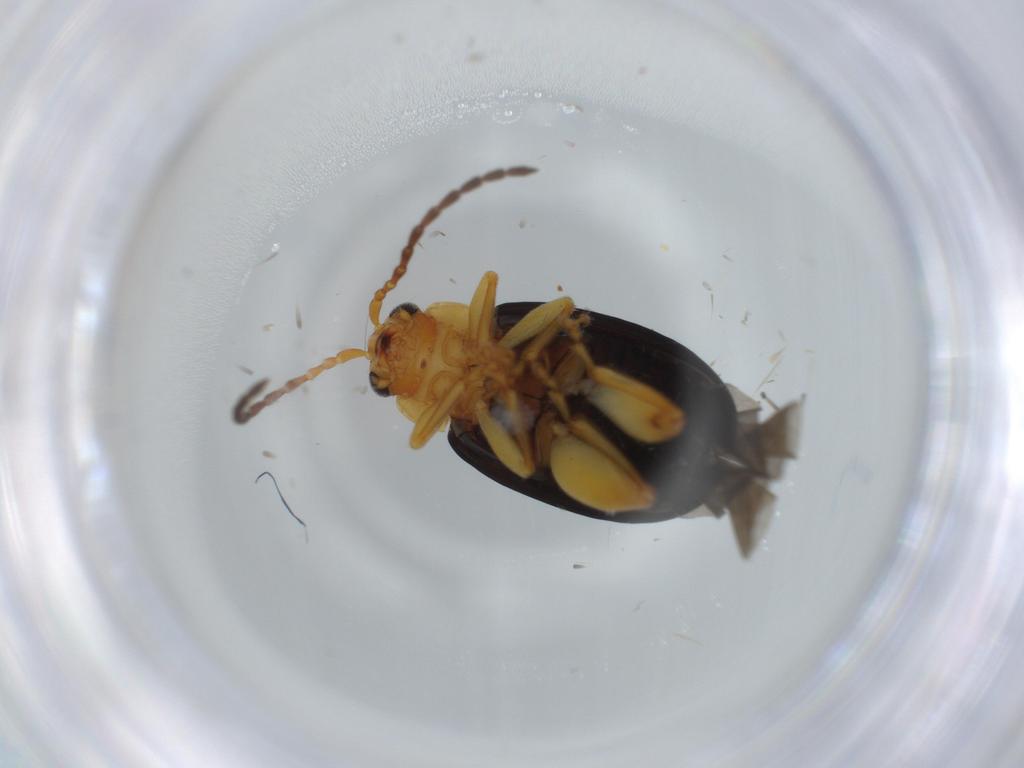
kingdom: Animalia
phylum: Arthropoda
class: Insecta
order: Coleoptera
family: Chrysomelidae
